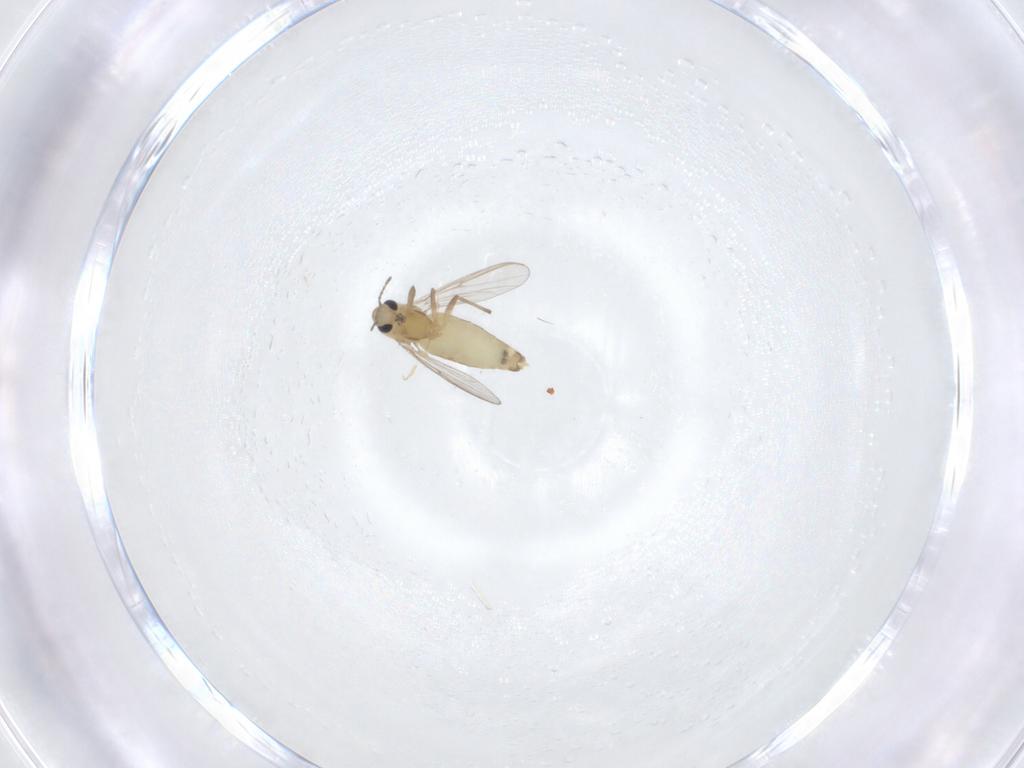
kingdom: Animalia
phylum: Arthropoda
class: Insecta
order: Diptera
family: Chironomidae
